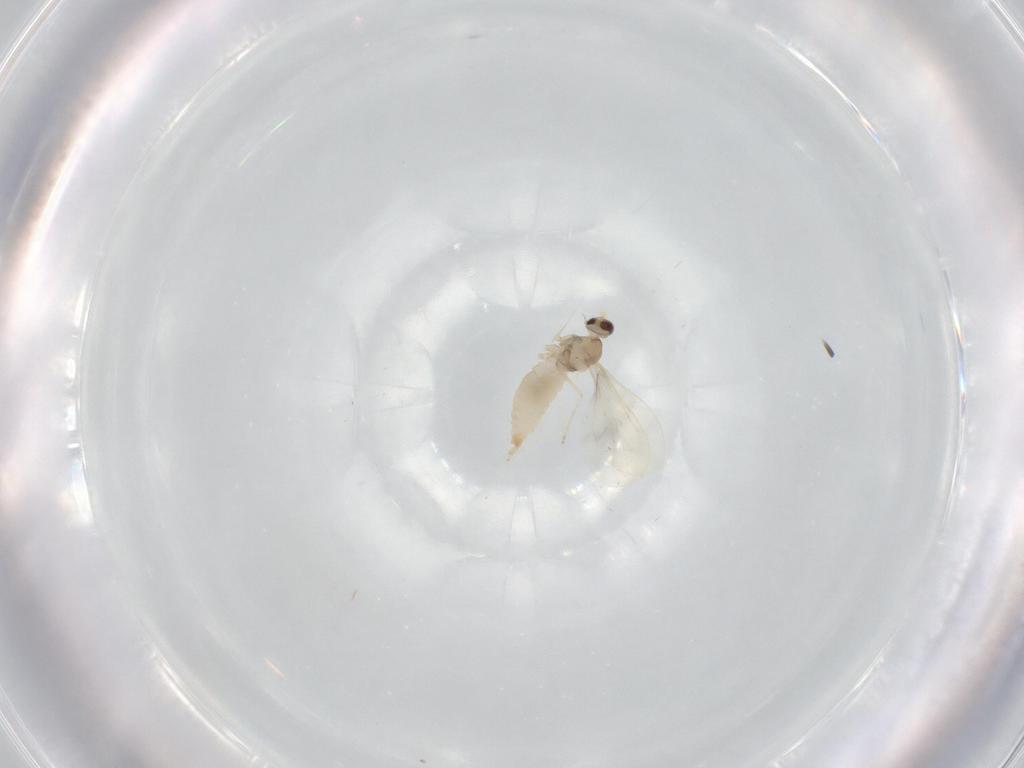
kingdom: Animalia
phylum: Arthropoda
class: Insecta
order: Diptera
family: Cecidomyiidae
